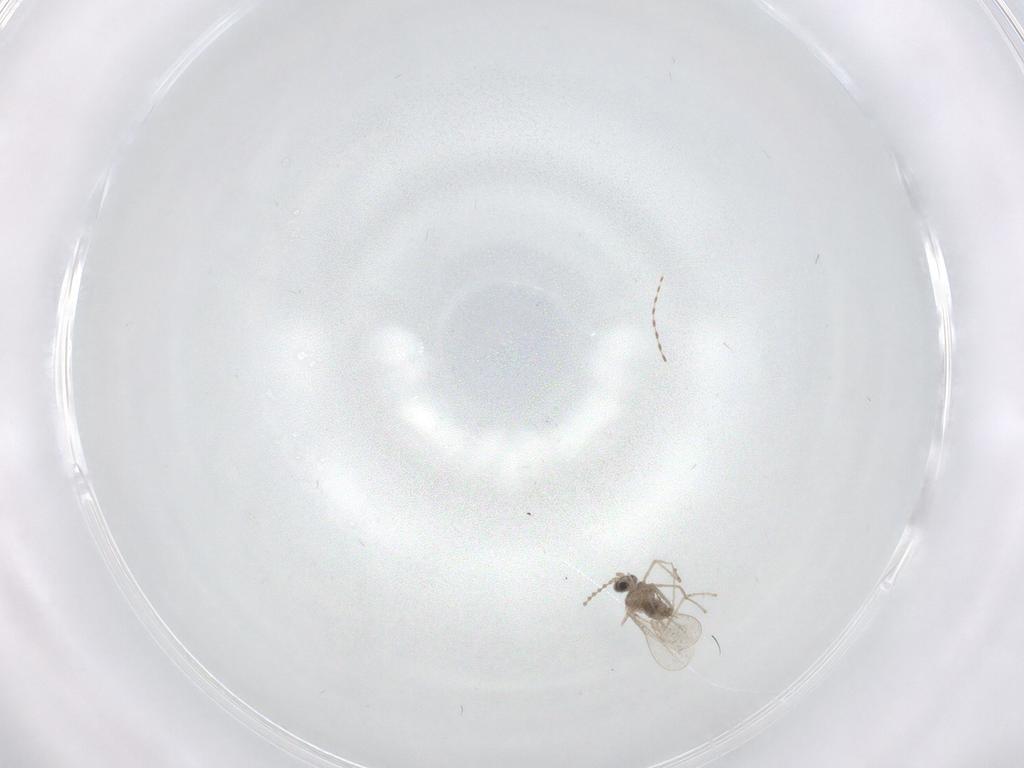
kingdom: Animalia
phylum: Arthropoda
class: Insecta
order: Diptera
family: Cecidomyiidae
